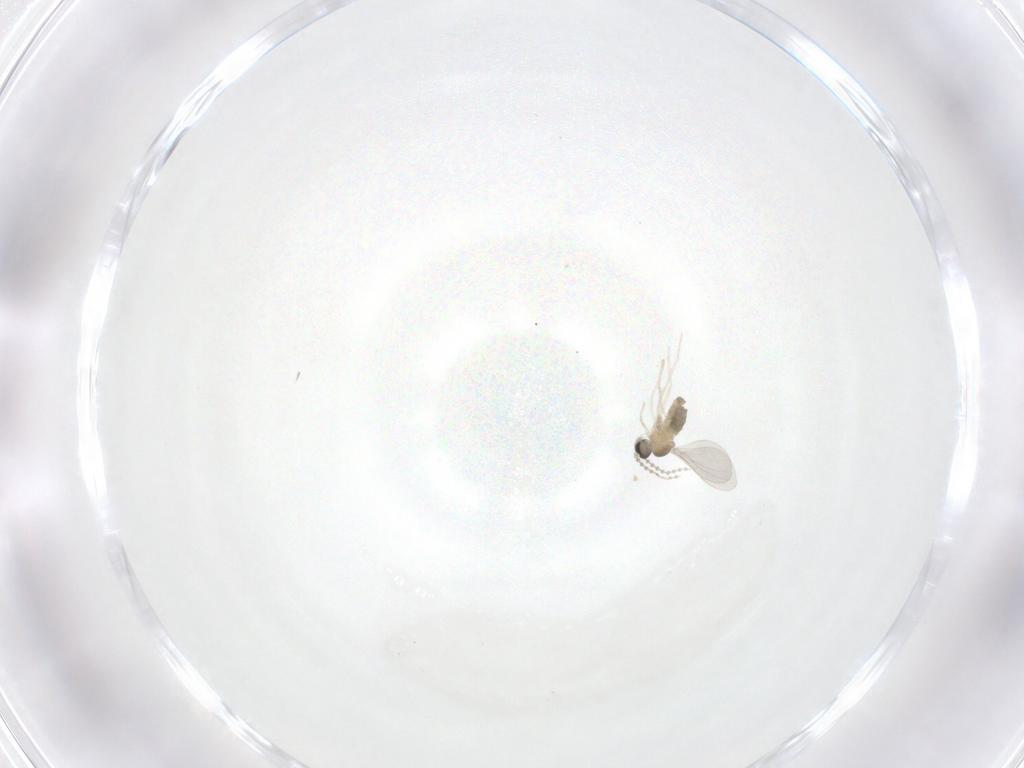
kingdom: Animalia
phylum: Arthropoda
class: Insecta
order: Diptera
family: Cecidomyiidae
